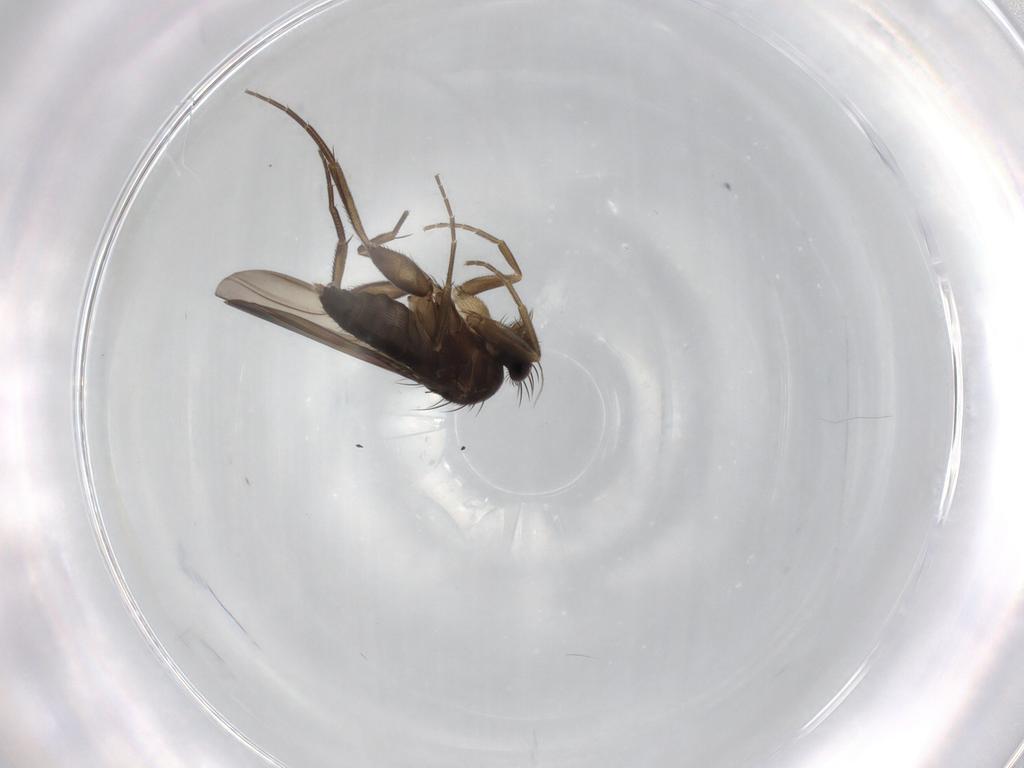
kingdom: Animalia
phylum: Arthropoda
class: Insecta
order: Diptera
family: Phoridae
